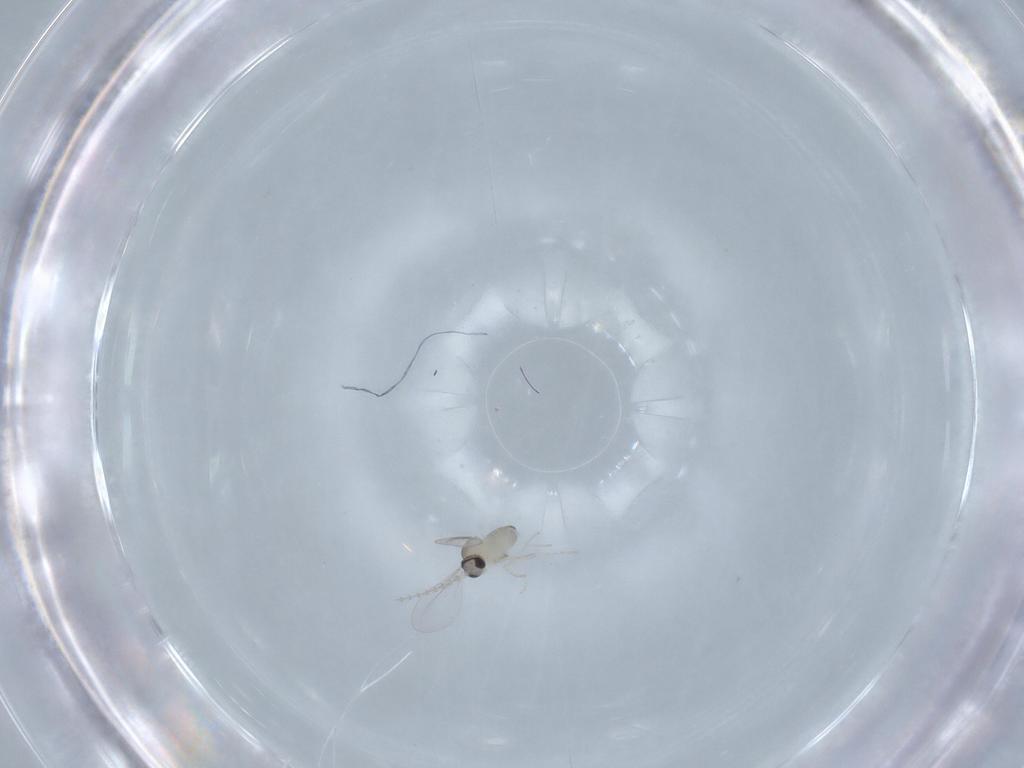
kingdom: Animalia
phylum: Arthropoda
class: Insecta
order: Diptera
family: Cecidomyiidae
